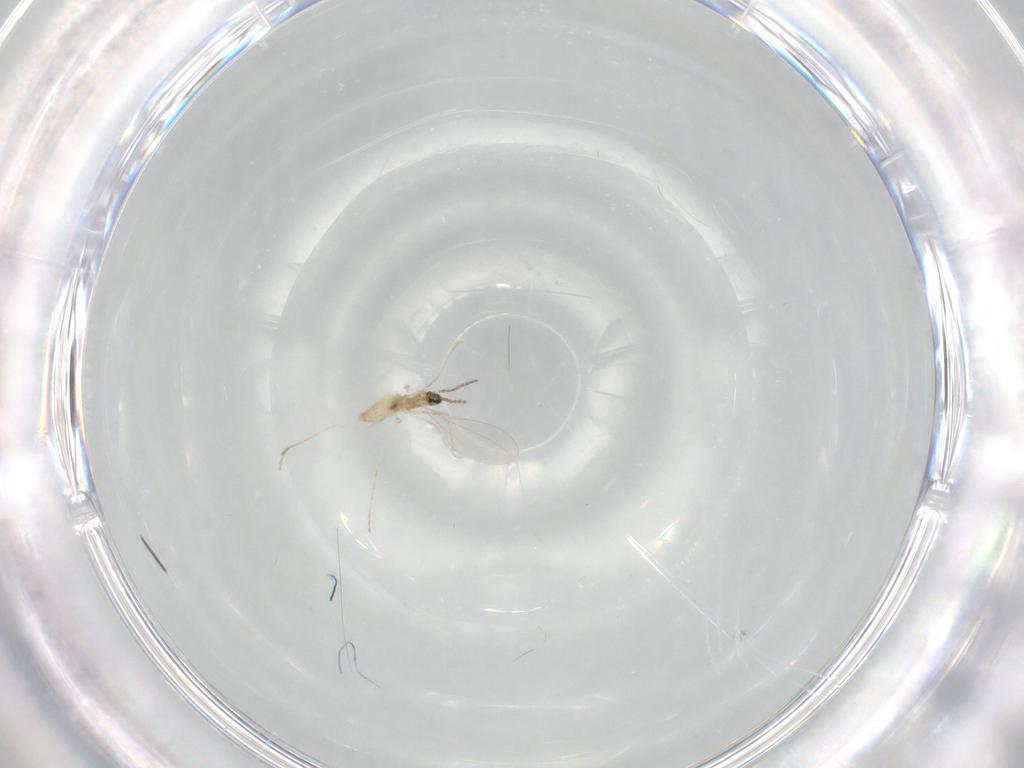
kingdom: Animalia
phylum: Arthropoda
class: Insecta
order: Diptera
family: Cecidomyiidae
